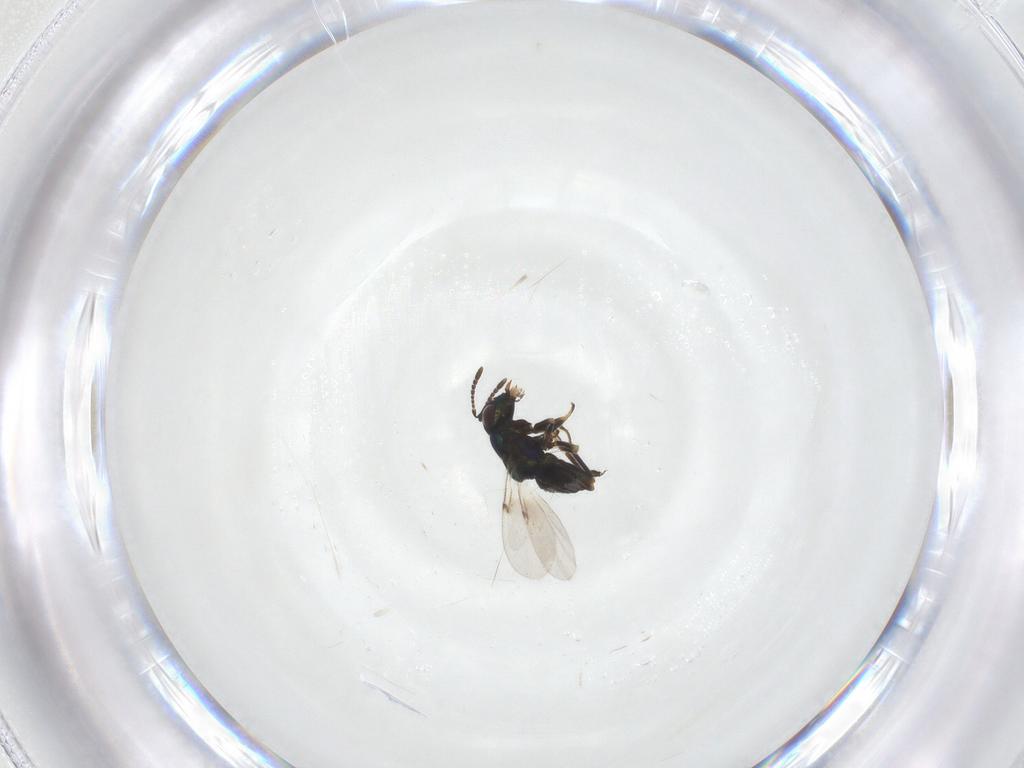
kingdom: Animalia
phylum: Arthropoda
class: Insecta
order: Hymenoptera
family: Encyrtidae
